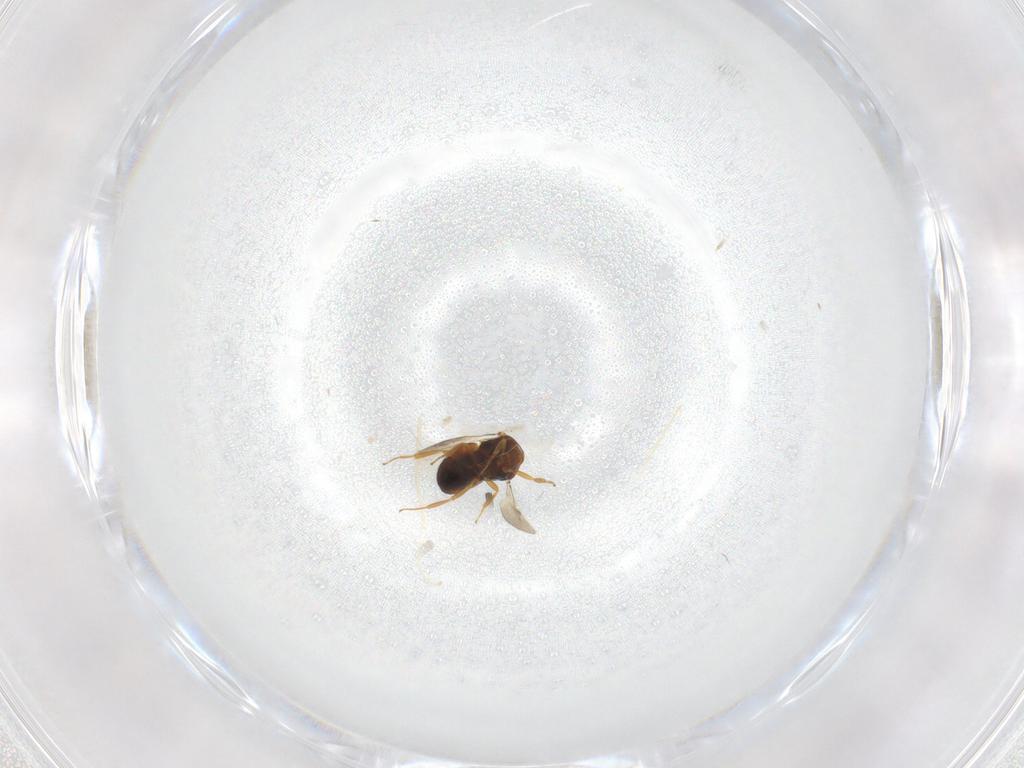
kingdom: Animalia
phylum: Arthropoda
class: Insecta
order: Hymenoptera
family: Scelionidae
